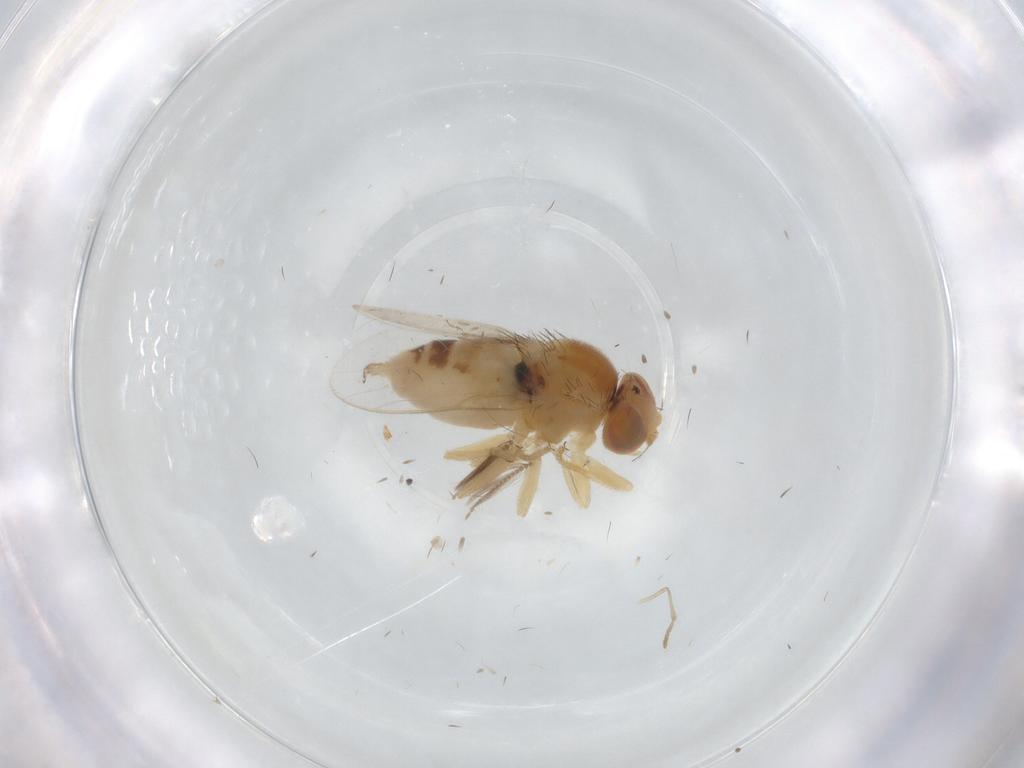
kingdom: Animalia
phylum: Arthropoda
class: Insecta
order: Diptera
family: Chloropidae
